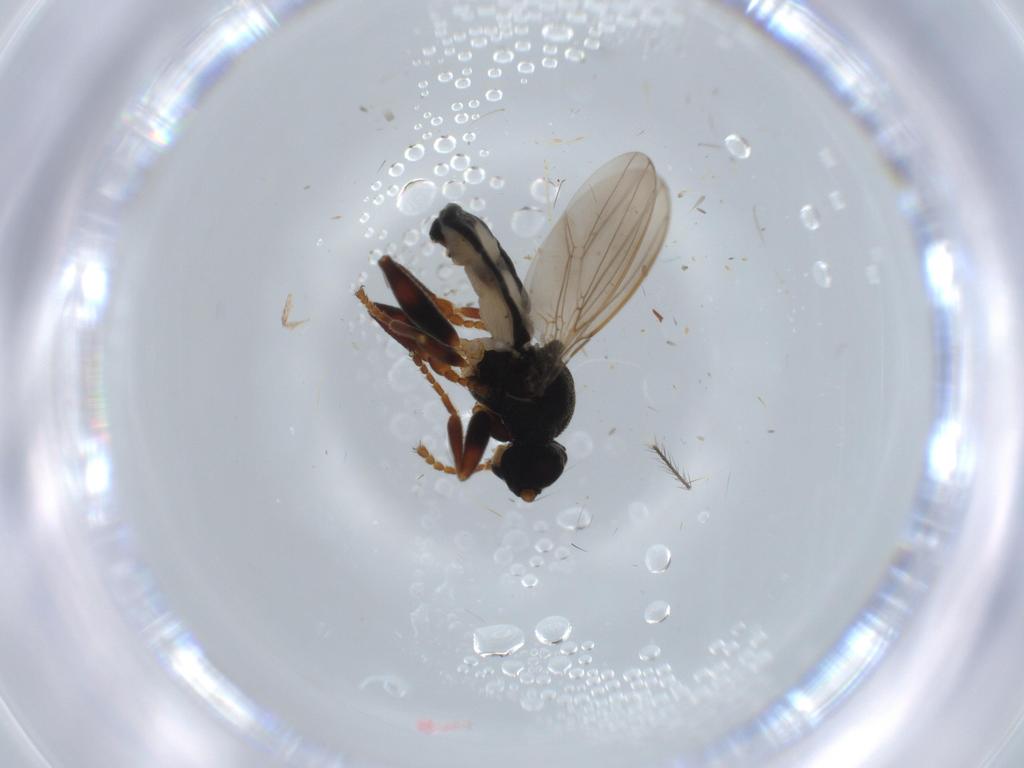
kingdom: Animalia
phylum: Arthropoda
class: Insecta
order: Diptera
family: Sphaeroceridae
